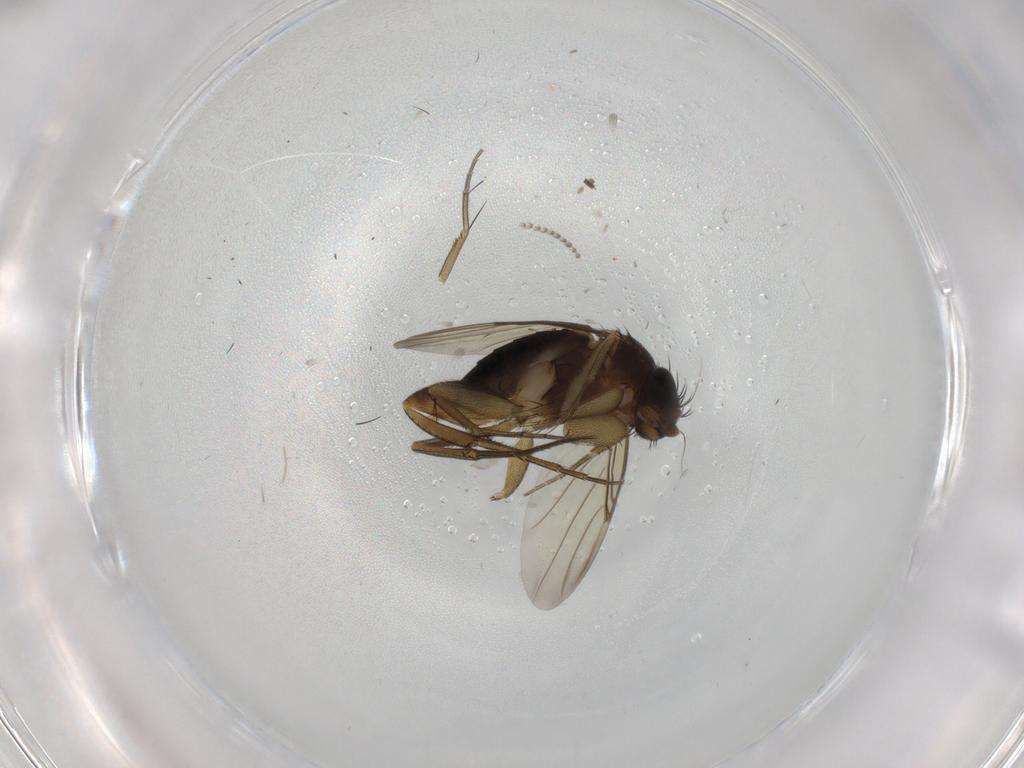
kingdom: Animalia
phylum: Arthropoda
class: Insecta
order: Diptera
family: Phoridae
